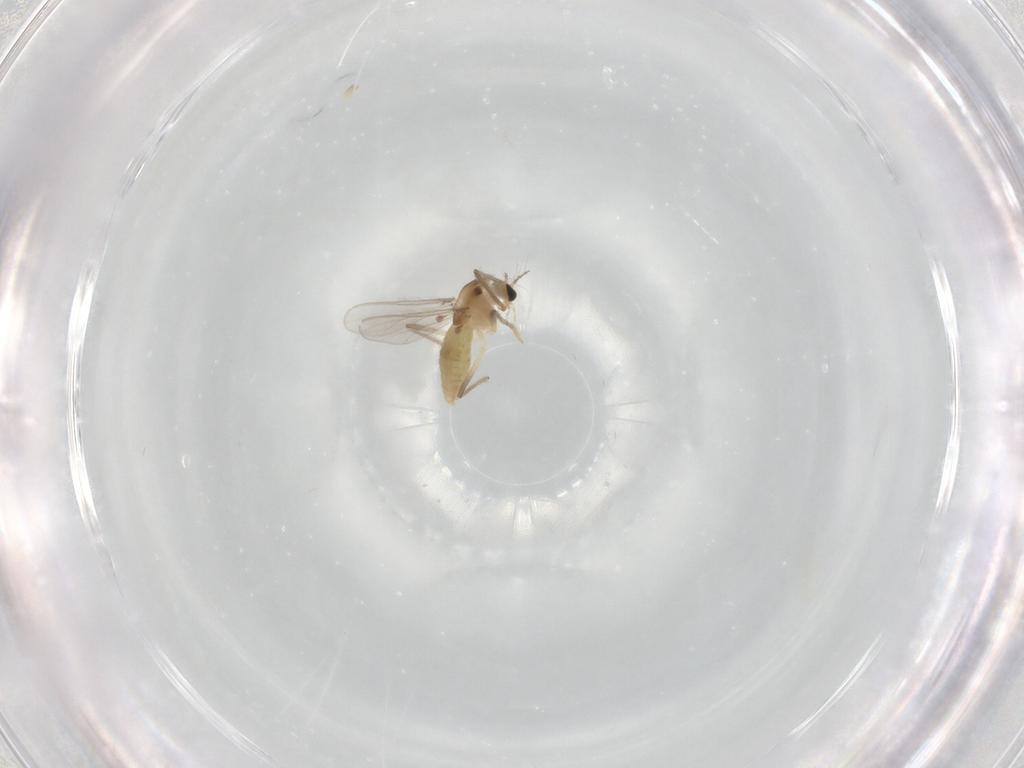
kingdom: Animalia
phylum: Arthropoda
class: Insecta
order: Diptera
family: Chironomidae
